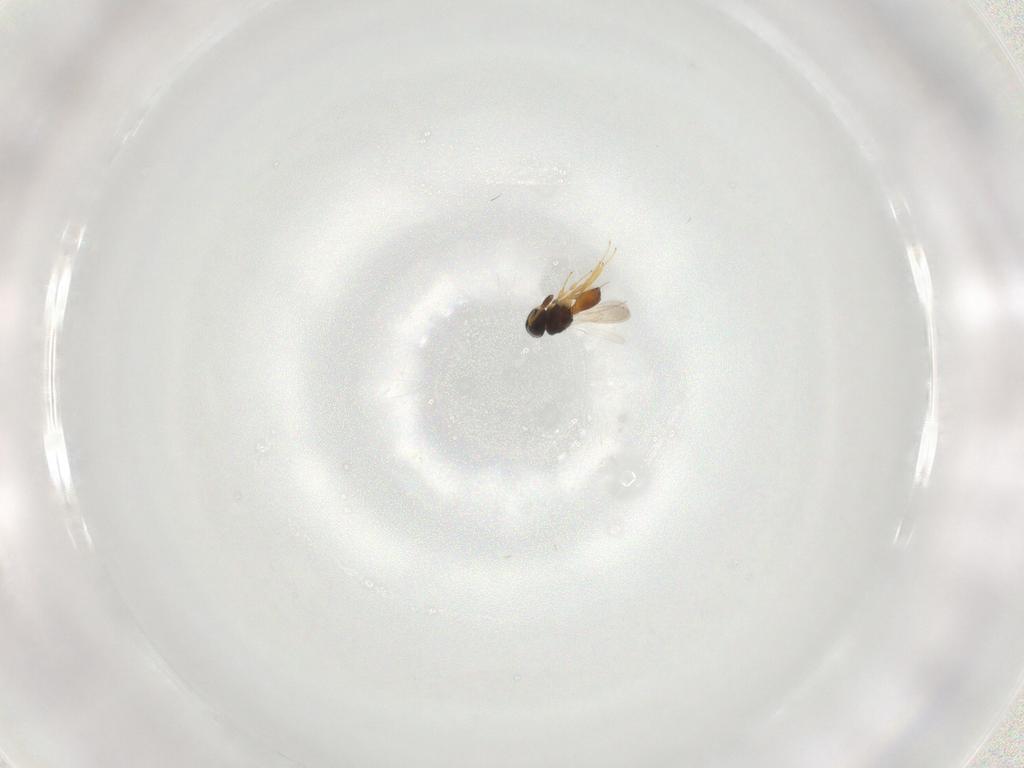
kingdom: Animalia
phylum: Arthropoda
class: Insecta
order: Hymenoptera
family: Scelionidae
